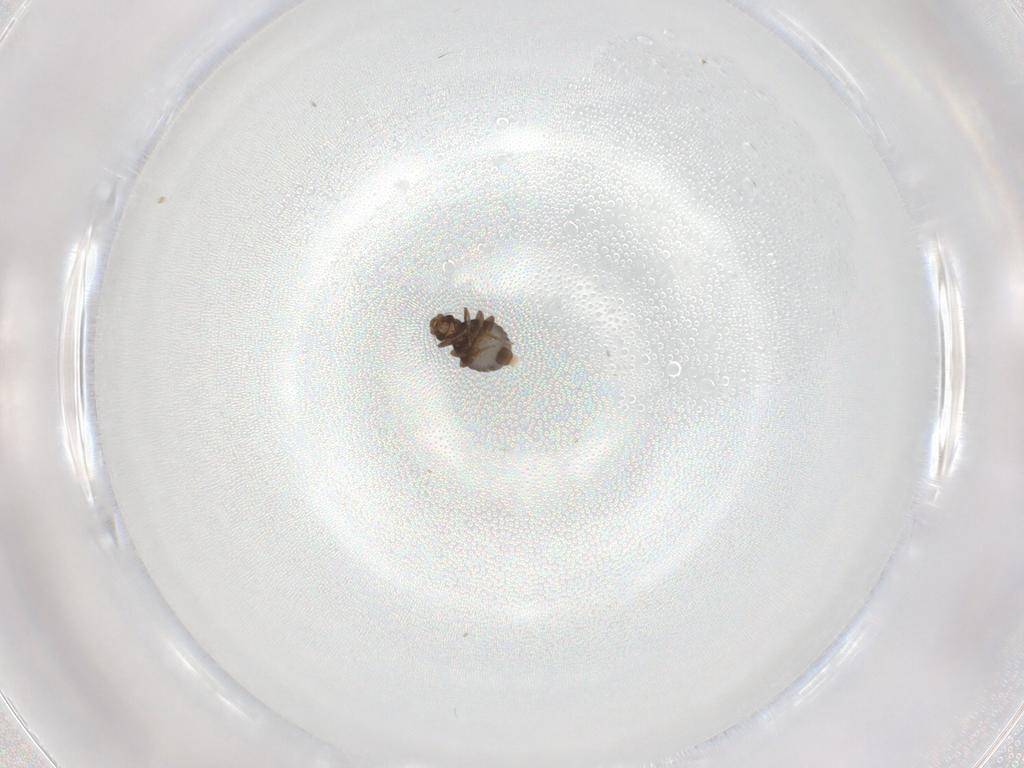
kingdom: Animalia
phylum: Arthropoda
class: Insecta
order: Diptera
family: Cecidomyiidae
